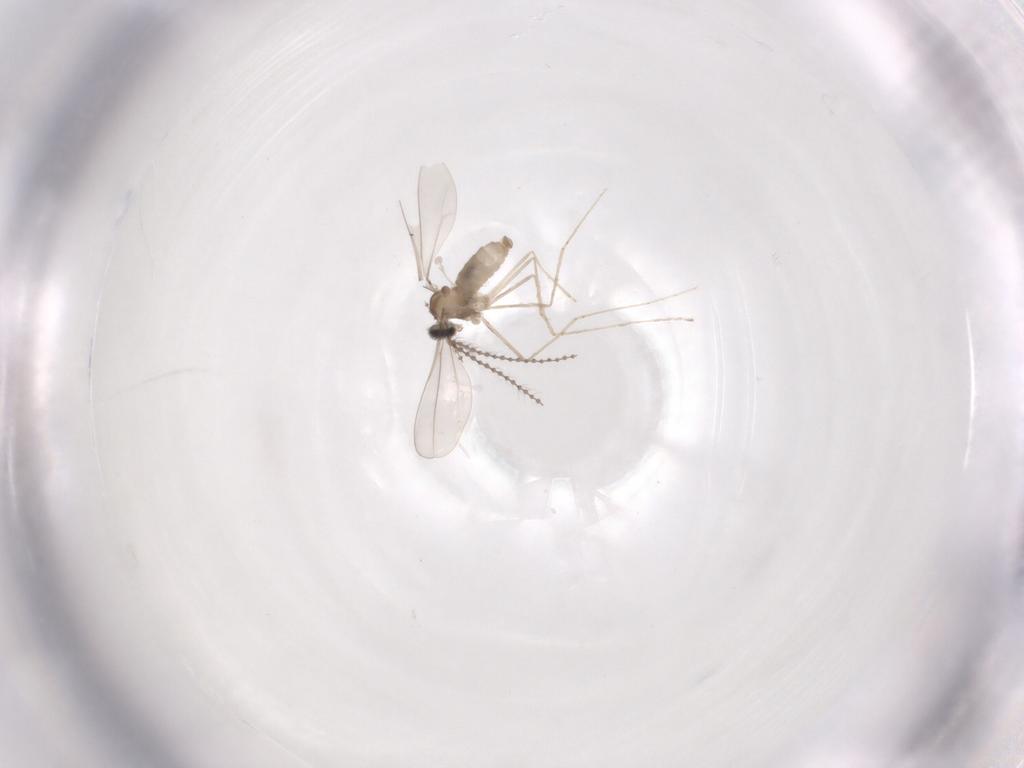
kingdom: Animalia
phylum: Arthropoda
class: Insecta
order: Diptera
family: Cecidomyiidae
